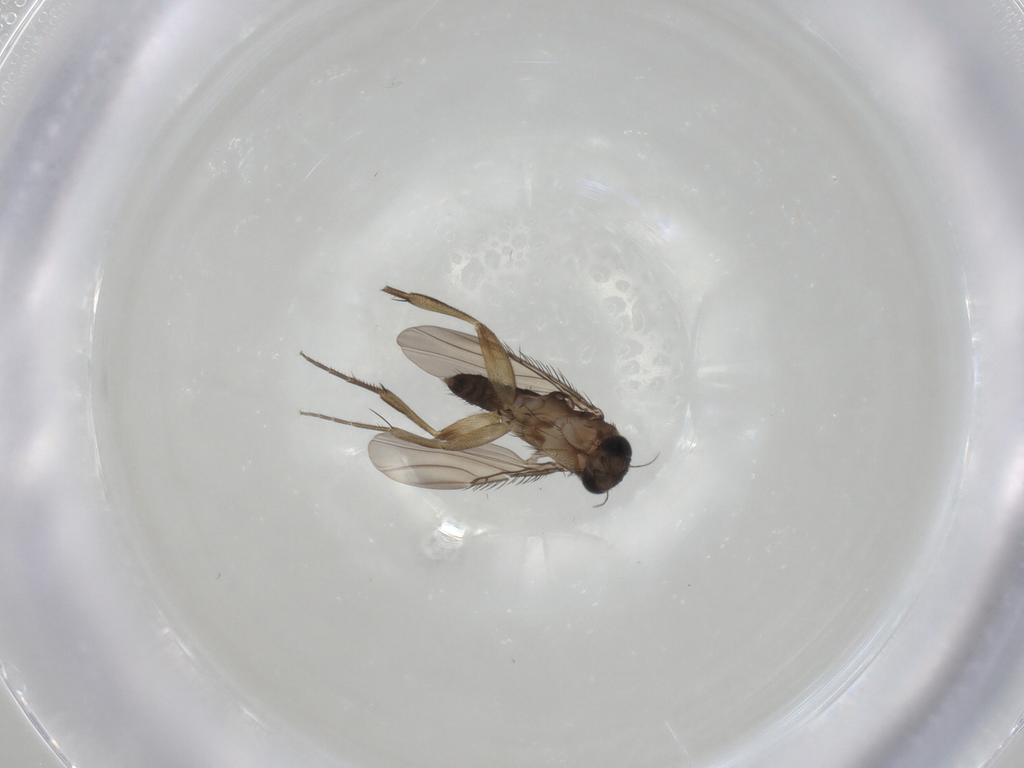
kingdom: Animalia
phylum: Arthropoda
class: Insecta
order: Diptera
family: Phoridae
